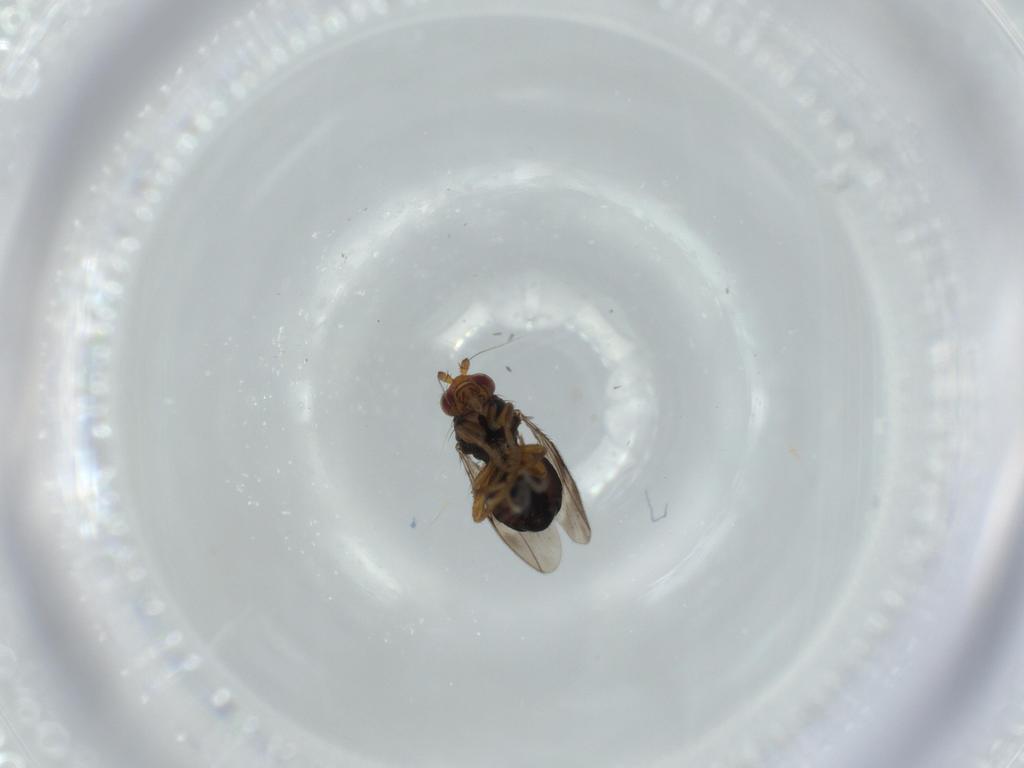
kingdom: Animalia
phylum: Arthropoda
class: Insecta
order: Diptera
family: Sphaeroceridae
